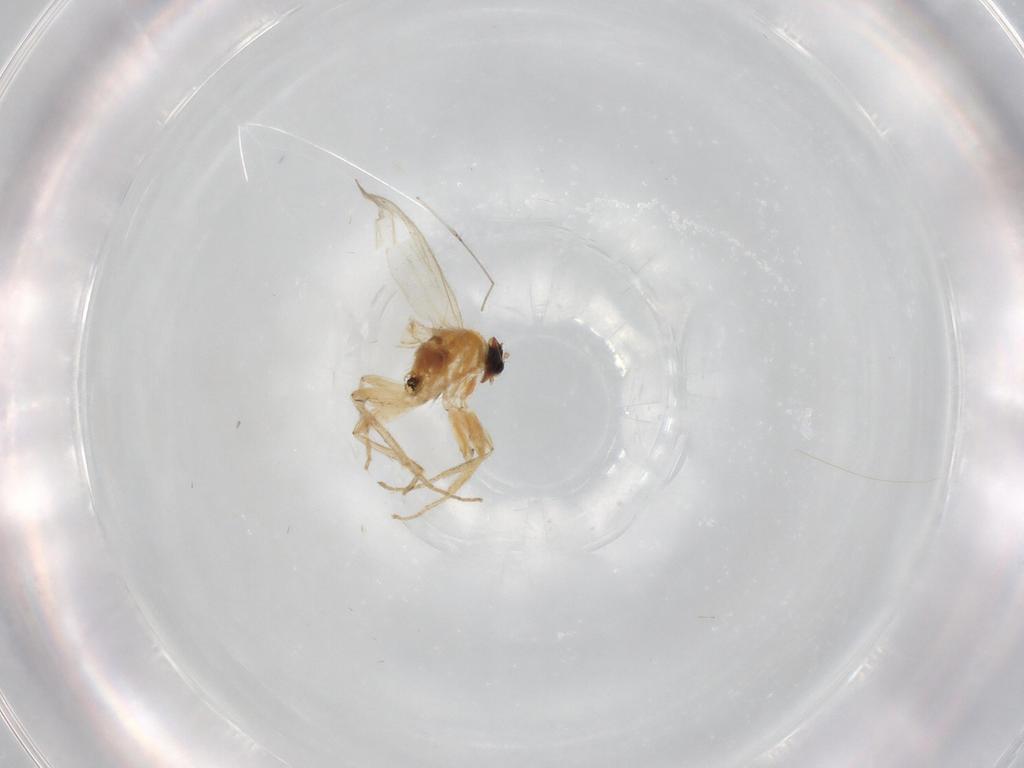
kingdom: Animalia
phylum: Arthropoda
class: Insecta
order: Diptera
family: Cecidomyiidae
